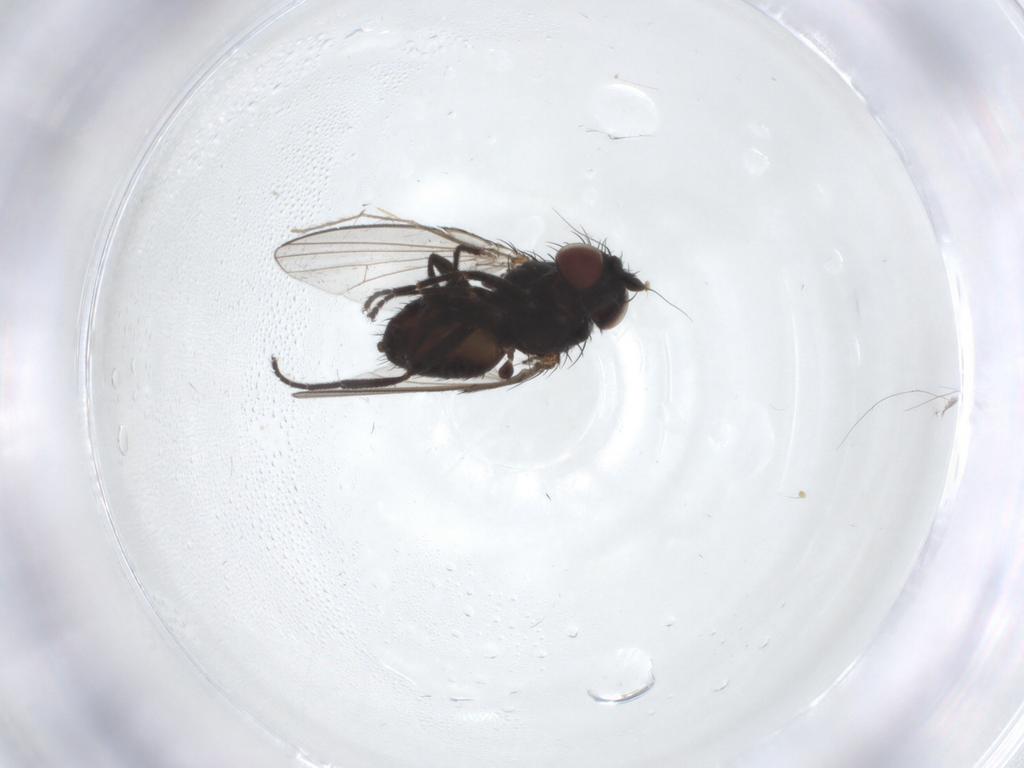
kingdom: Animalia
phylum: Arthropoda
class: Insecta
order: Diptera
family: Milichiidae
